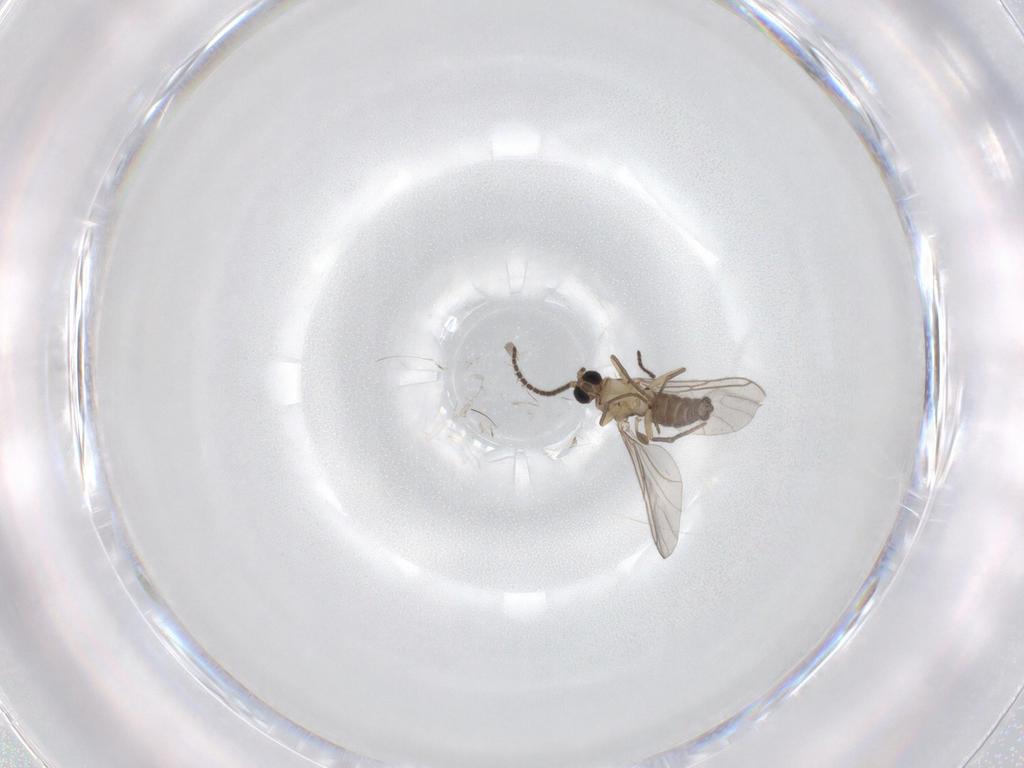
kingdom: Animalia
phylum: Arthropoda
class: Insecta
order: Diptera
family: Sciaridae
